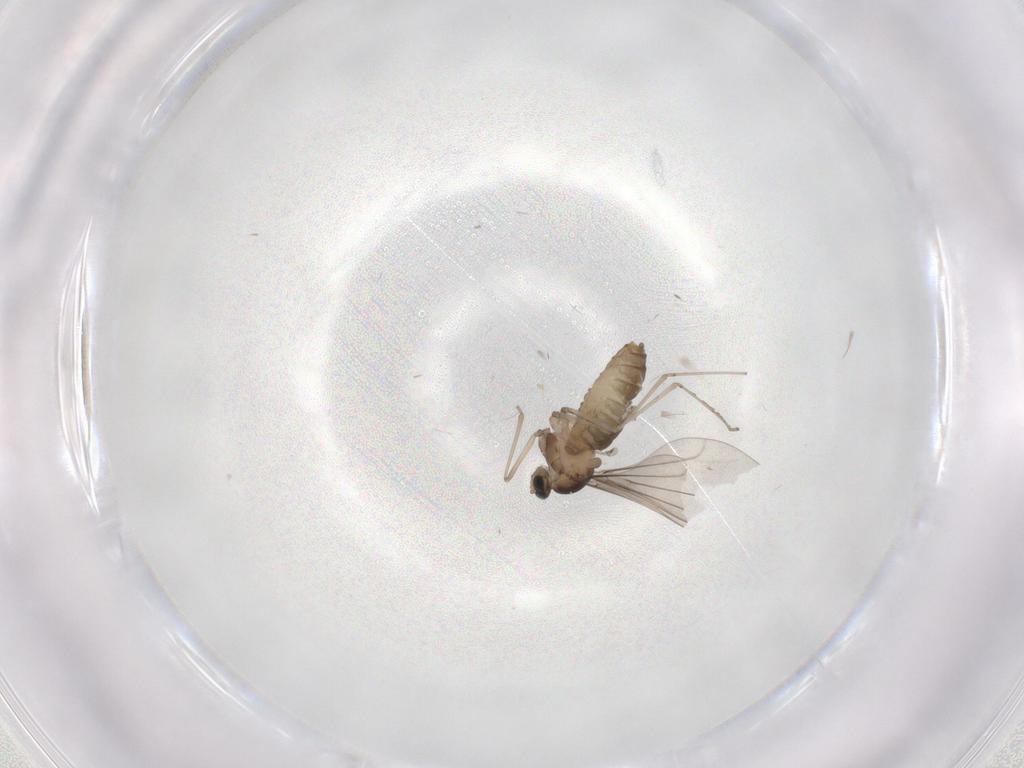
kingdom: Animalia
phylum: Arthropoda
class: Insecta
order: Diptera
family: Cecidomyiidae
